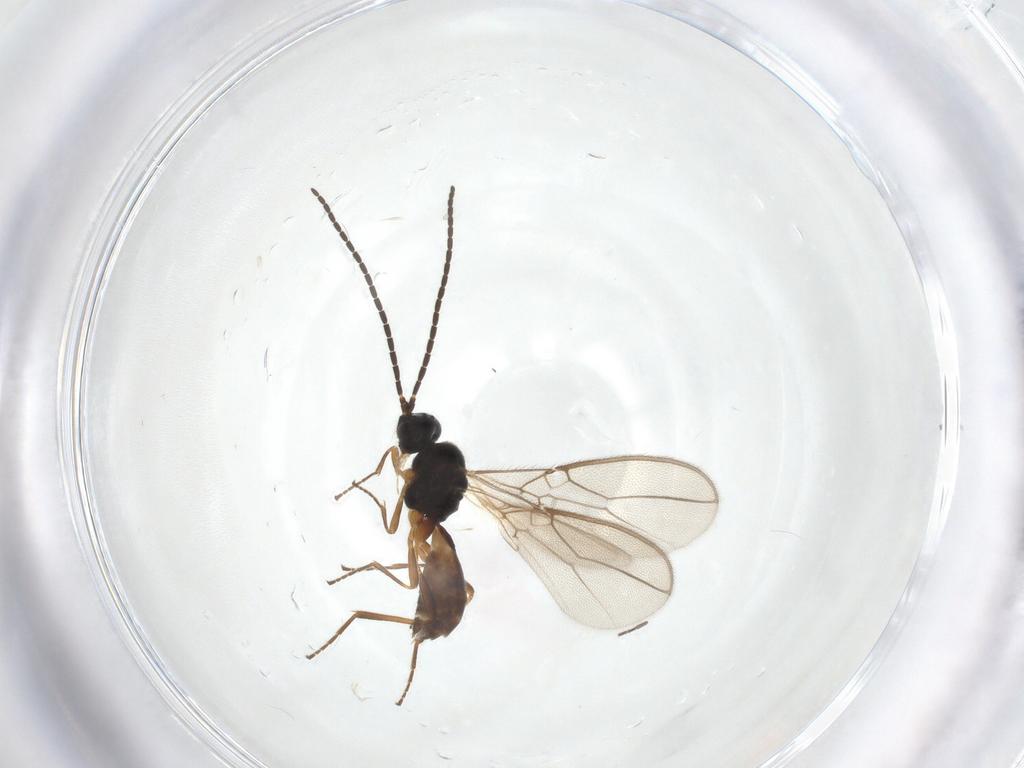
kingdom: Animalia
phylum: Arthropoda
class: Insecta
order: Hymenoptera
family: Braconidae
